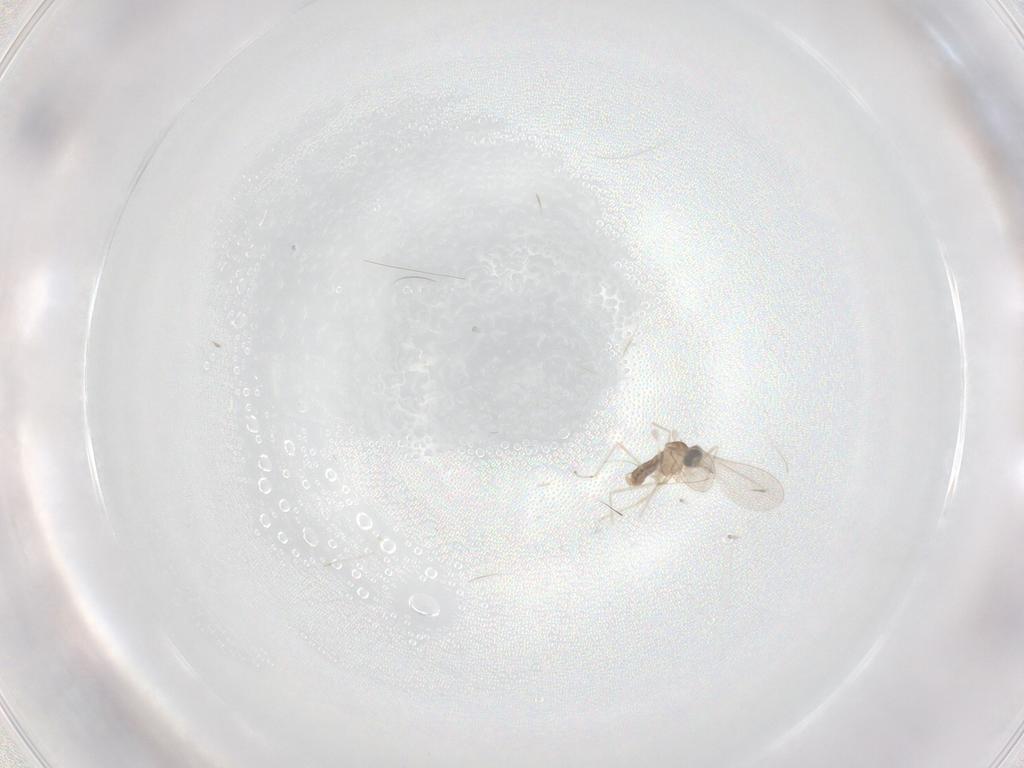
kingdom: Animalia
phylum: Arthropoda
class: Insecta
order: Diptera
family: Cecidomyiidae
